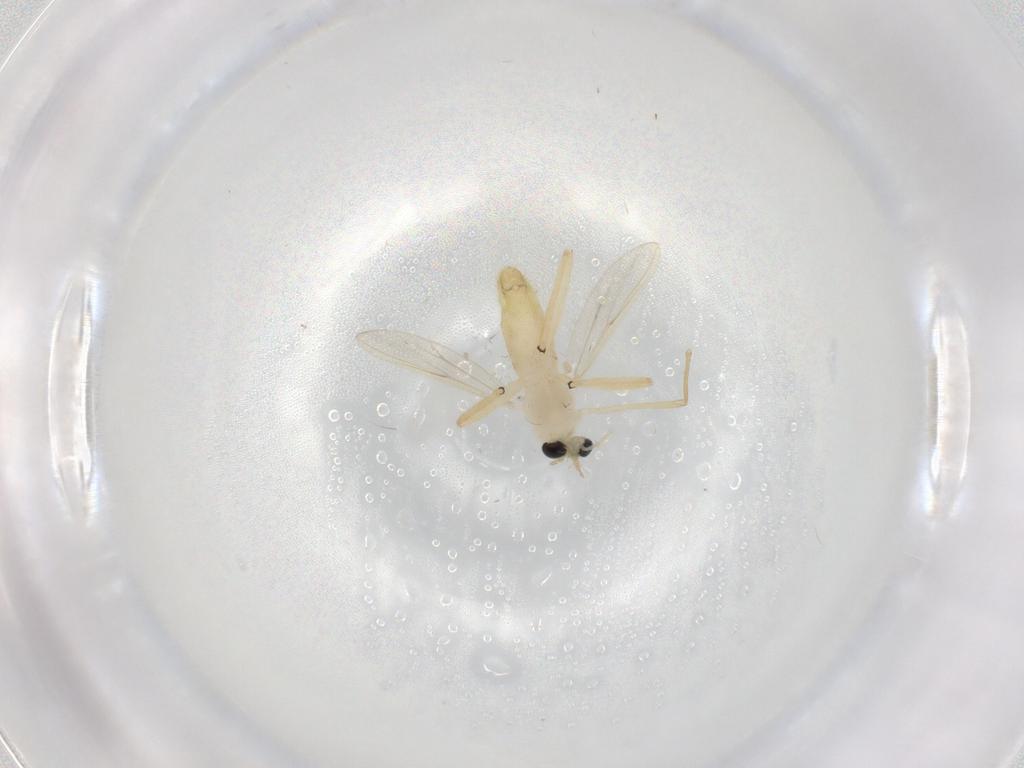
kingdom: Animalia
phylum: Arthropoda
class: Insecta
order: Diptera
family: Chironomidae
